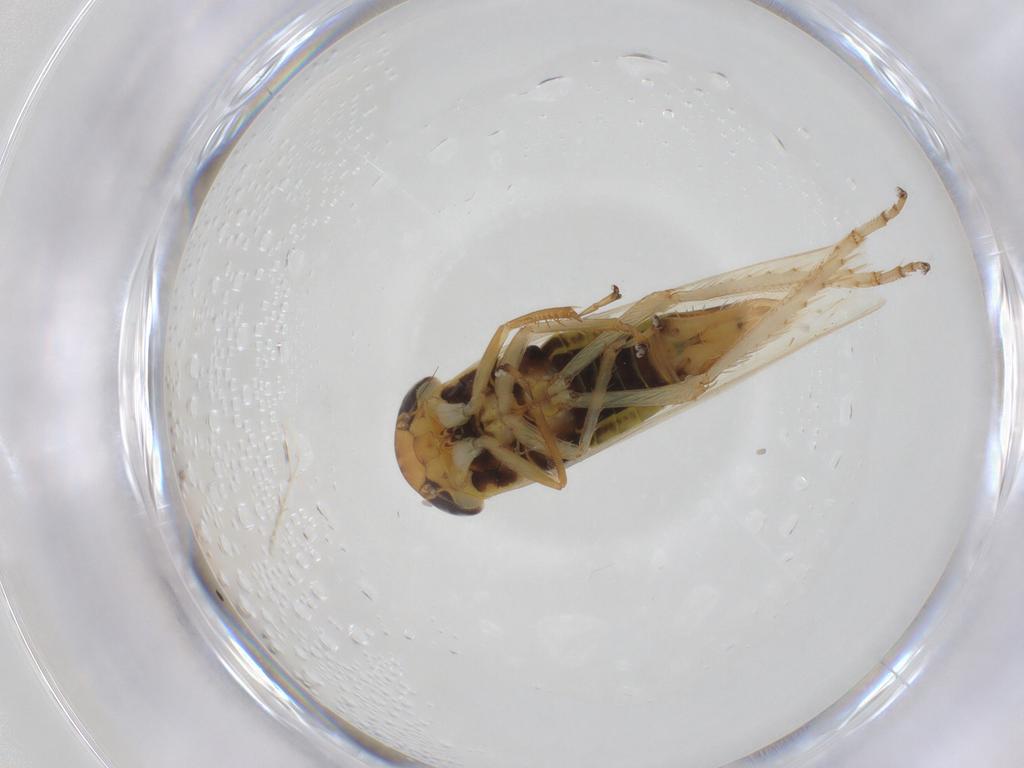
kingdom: Animalia
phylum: Arthropoda
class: Insecta
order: Hemiptera
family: Cicadellidae
